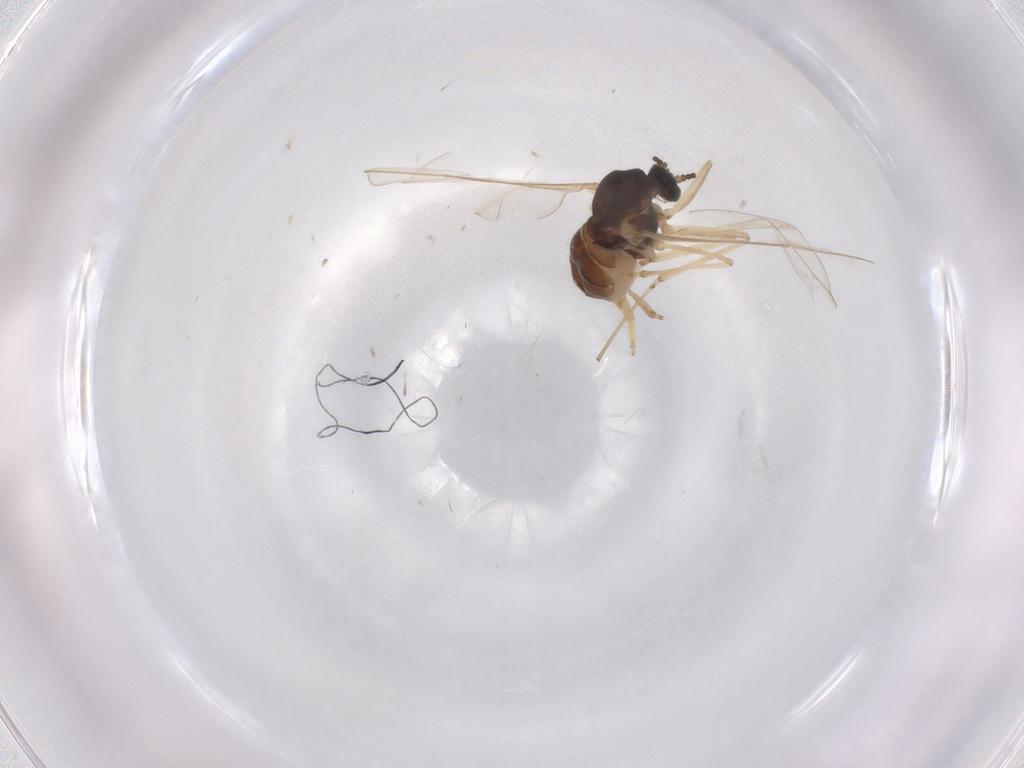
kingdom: Animalia
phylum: Arthropoda
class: Insecta
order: Diptera
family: Cecidomyiidae
